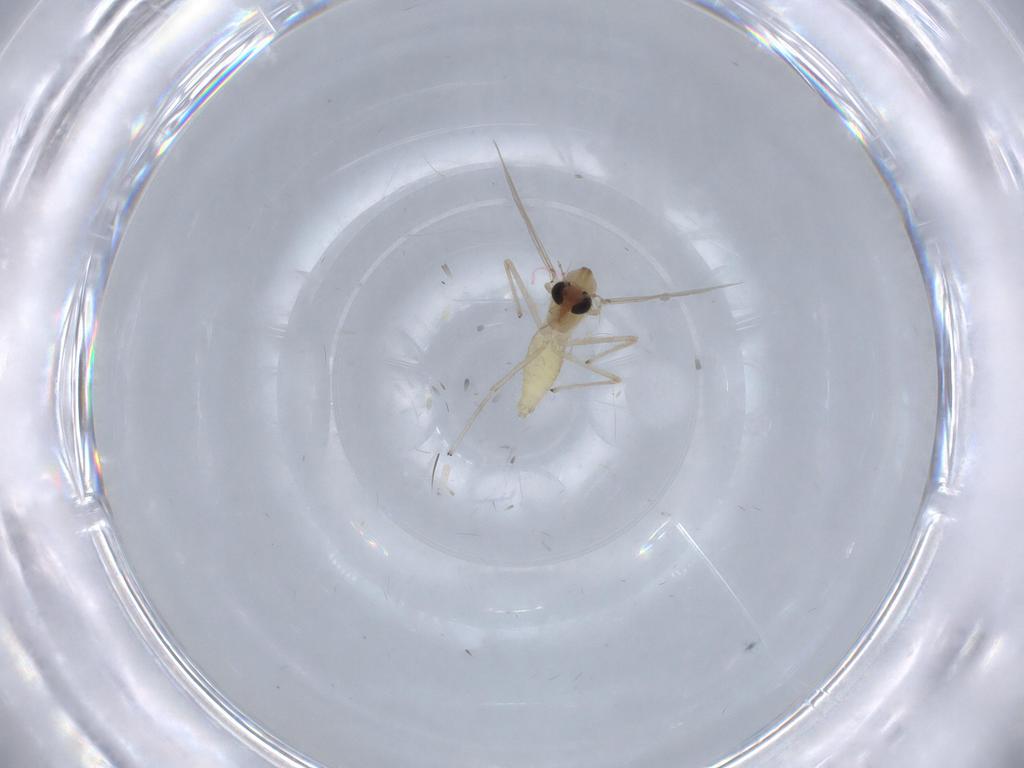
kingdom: Animalia
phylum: Arthropoda
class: Insecta
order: Diptera
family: Chironomidae
